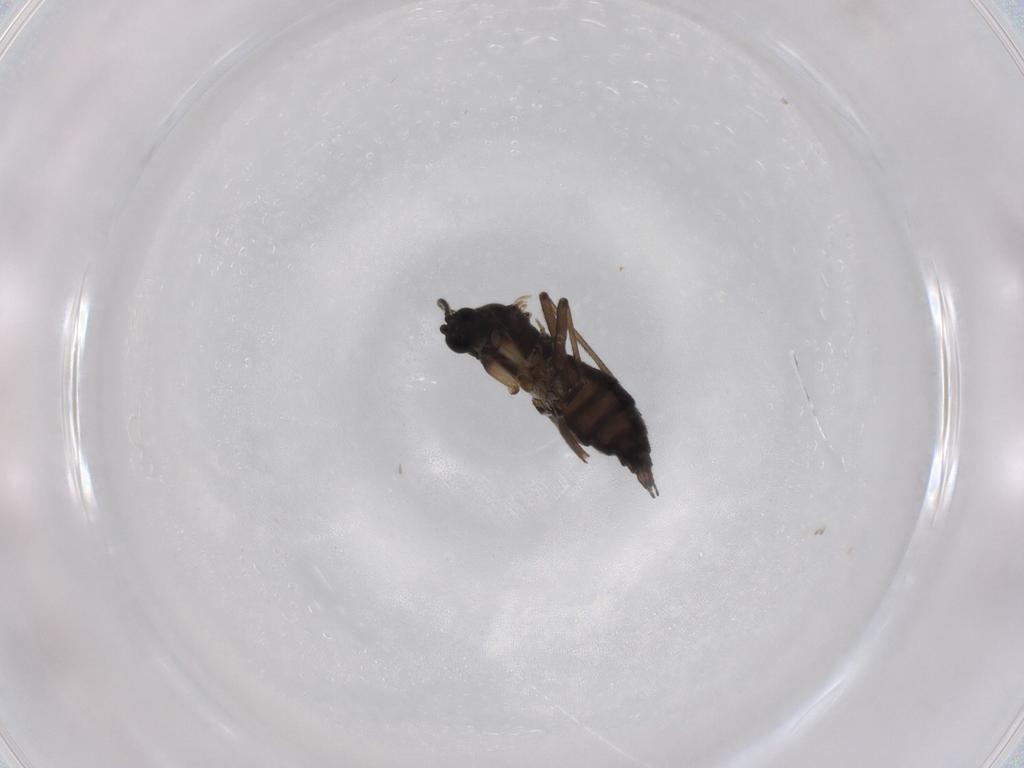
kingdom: Animalia
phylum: Arthropoda
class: Insecta
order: Diptera
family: Sciaridae
